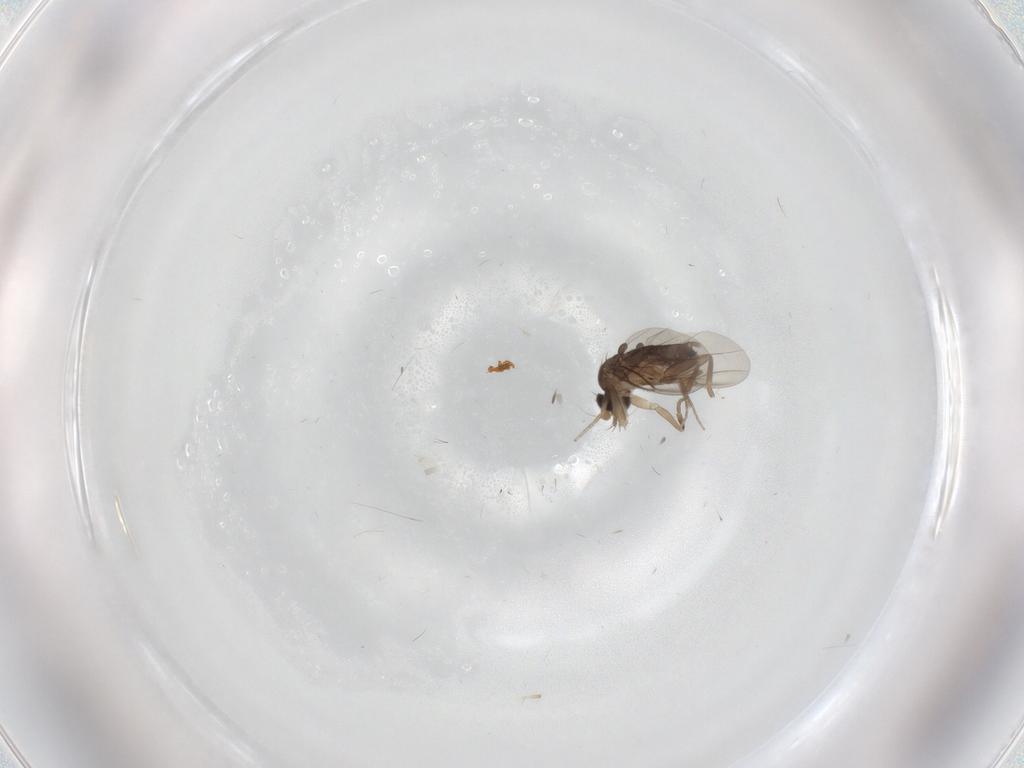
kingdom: Animalia
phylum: Arthropoda
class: Insecta
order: Diptera
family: Phoridae
